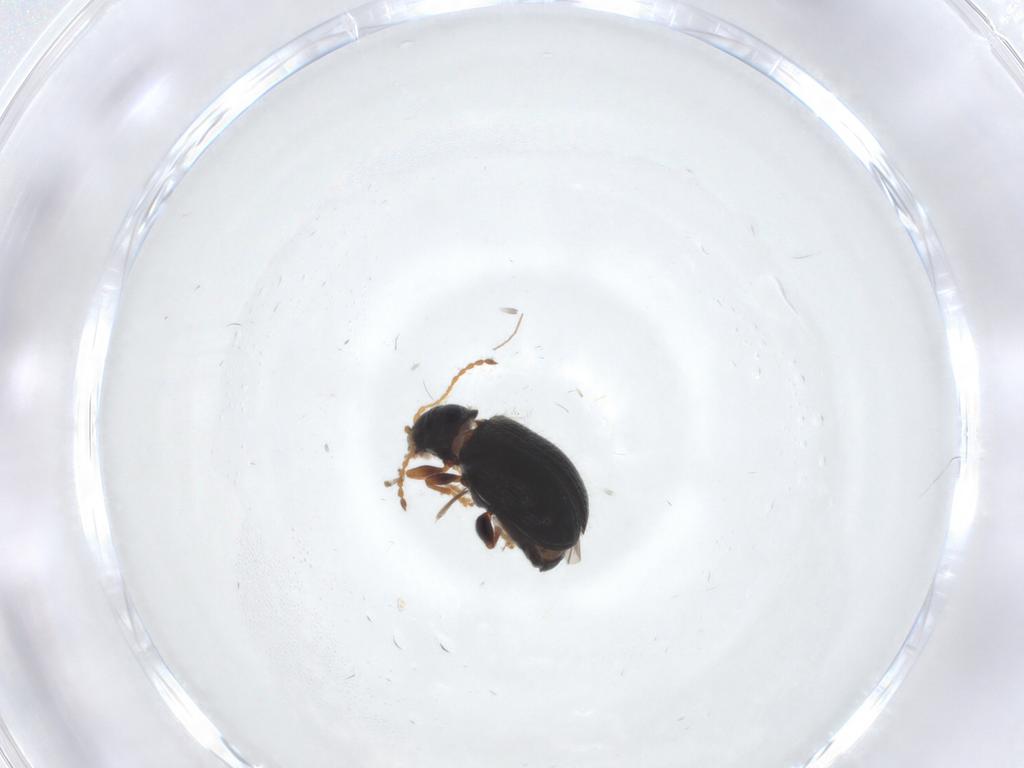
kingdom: Animalia
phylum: Arthropoda
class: Insecta
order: Coleoptera
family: Chrysomelidae
